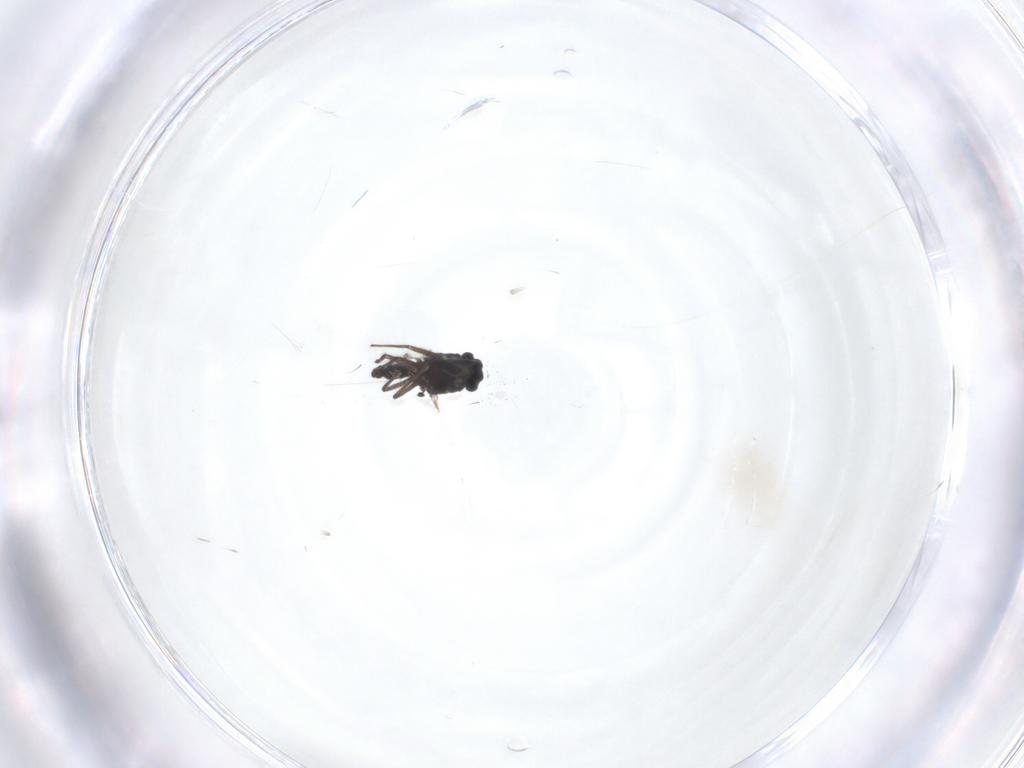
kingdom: Animalia
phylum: Arthropoda
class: Insecta
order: Diptera
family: Chironomidae
